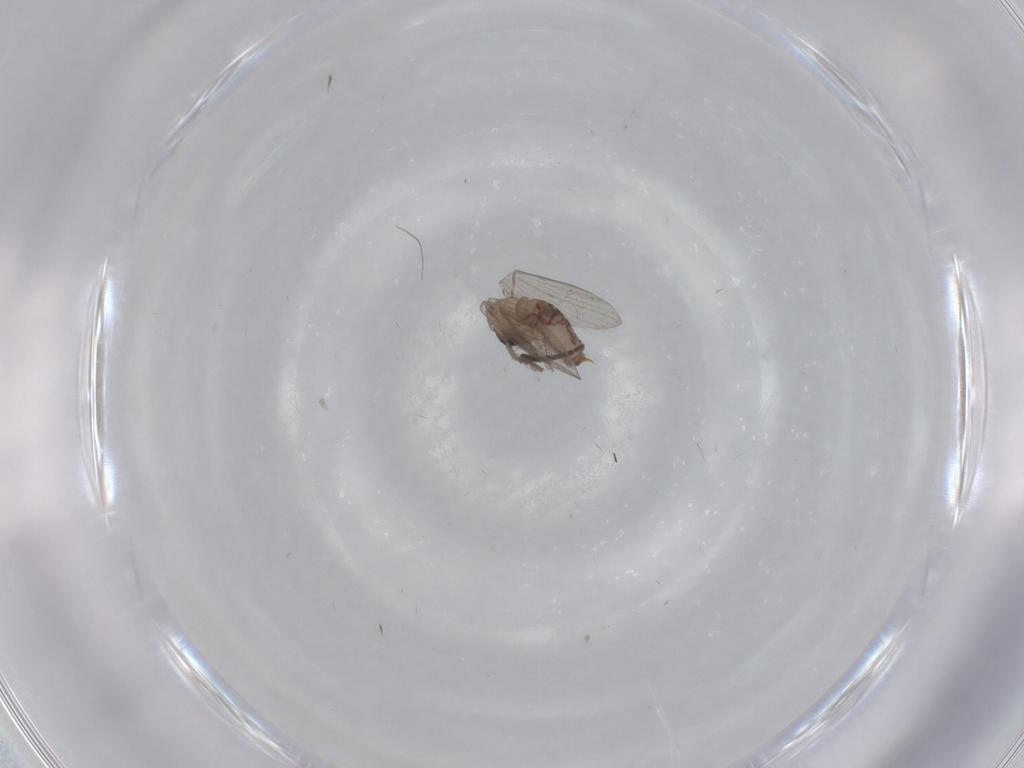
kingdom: Animalia
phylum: Arthropoda
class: Insecta
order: Diptera
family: Sciaridae
